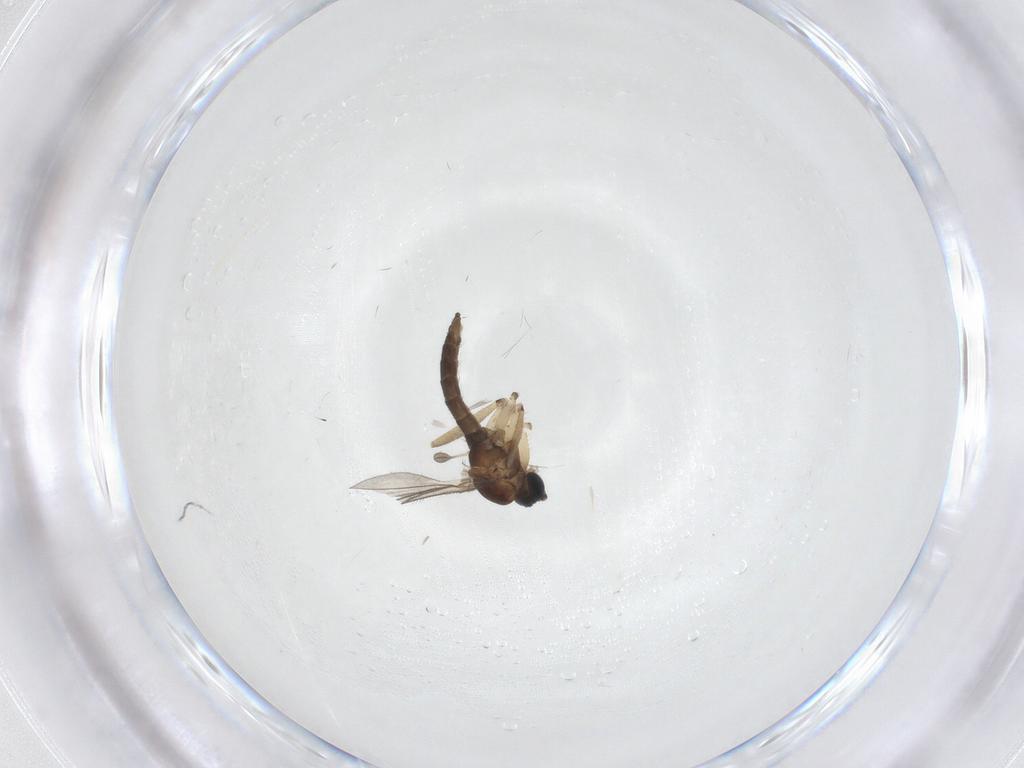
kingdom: Animalia
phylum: Arthropoda
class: Insecta
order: Diptera
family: Sciaridae
